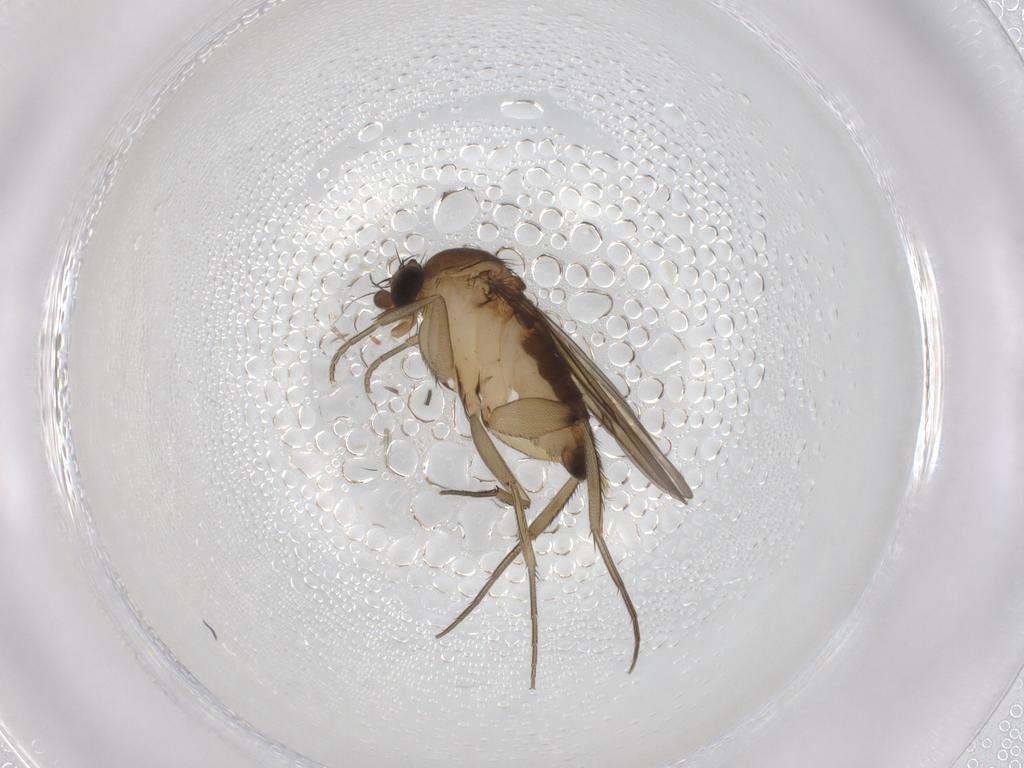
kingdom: Animalia
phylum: Arthropoda
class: Insecta
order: Diptera
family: Phoridae
